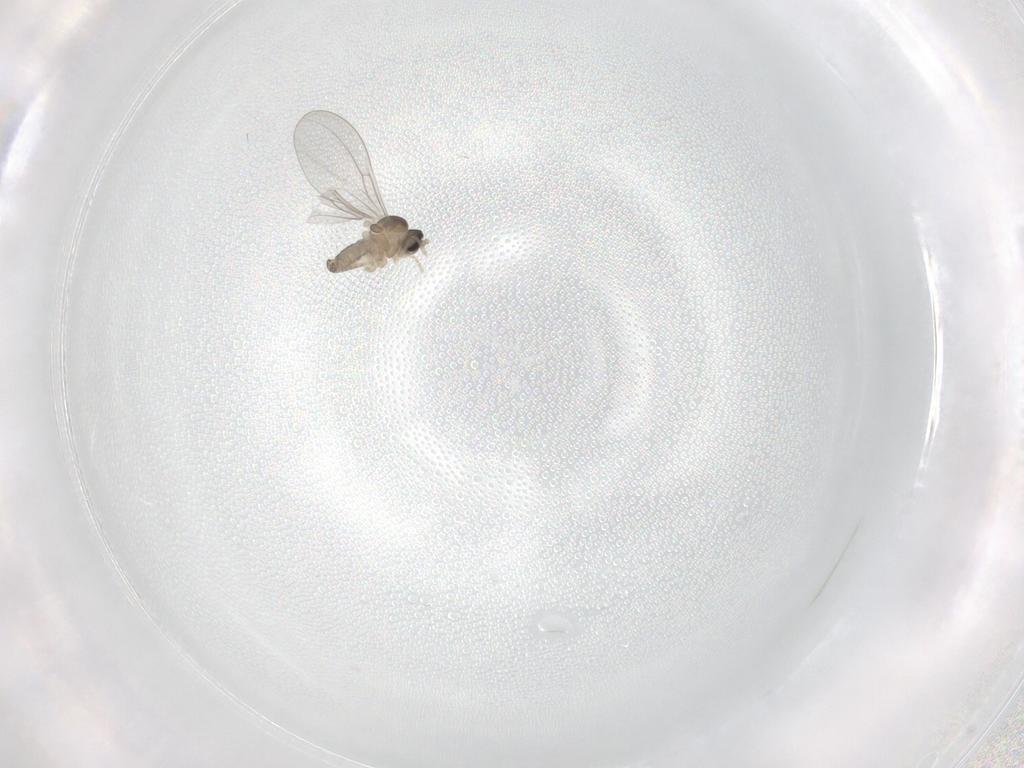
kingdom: Animalia
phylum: Arthropoda
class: Insecta
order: Diptera
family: Cecidomyiidae
